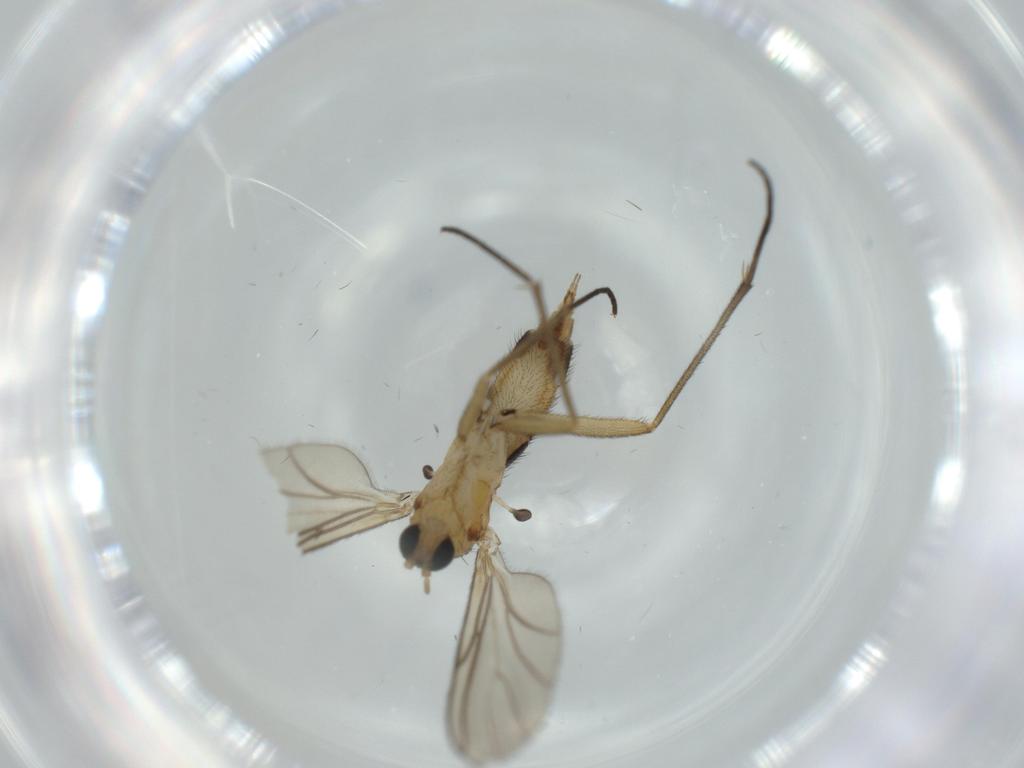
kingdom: Animalia
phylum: Arthropoda
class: Insecta
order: Diptera
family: Dolichopodidae
